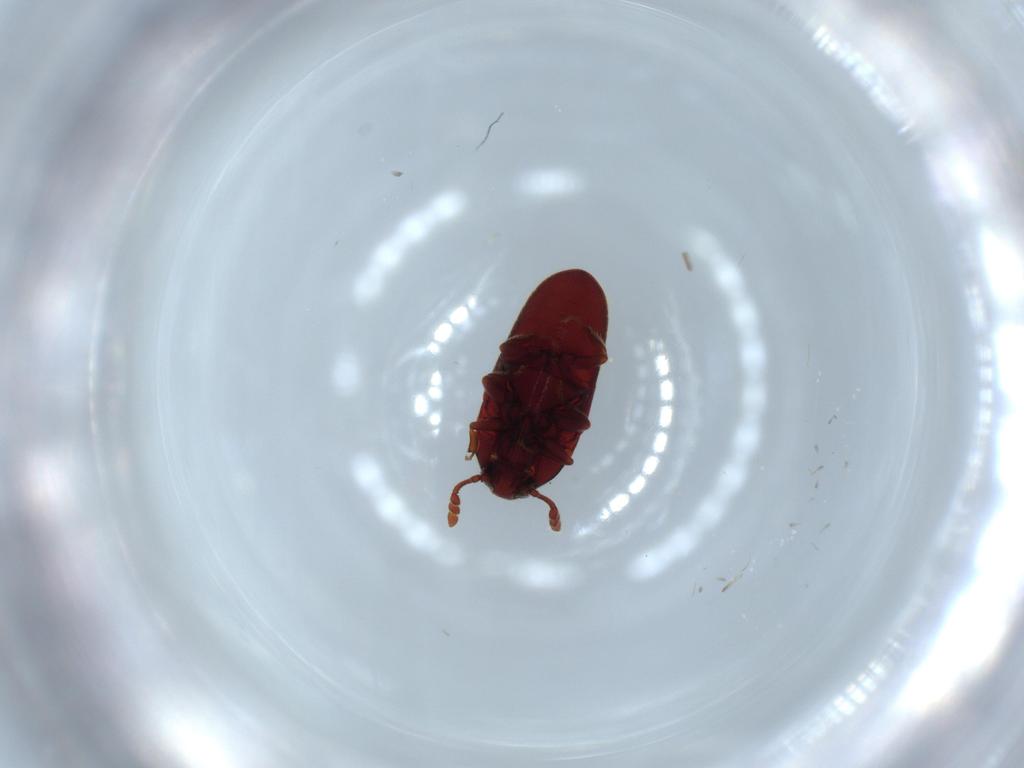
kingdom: Animalia
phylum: Arthropoda
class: Insecta
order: Coleoptera
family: Throscidae
